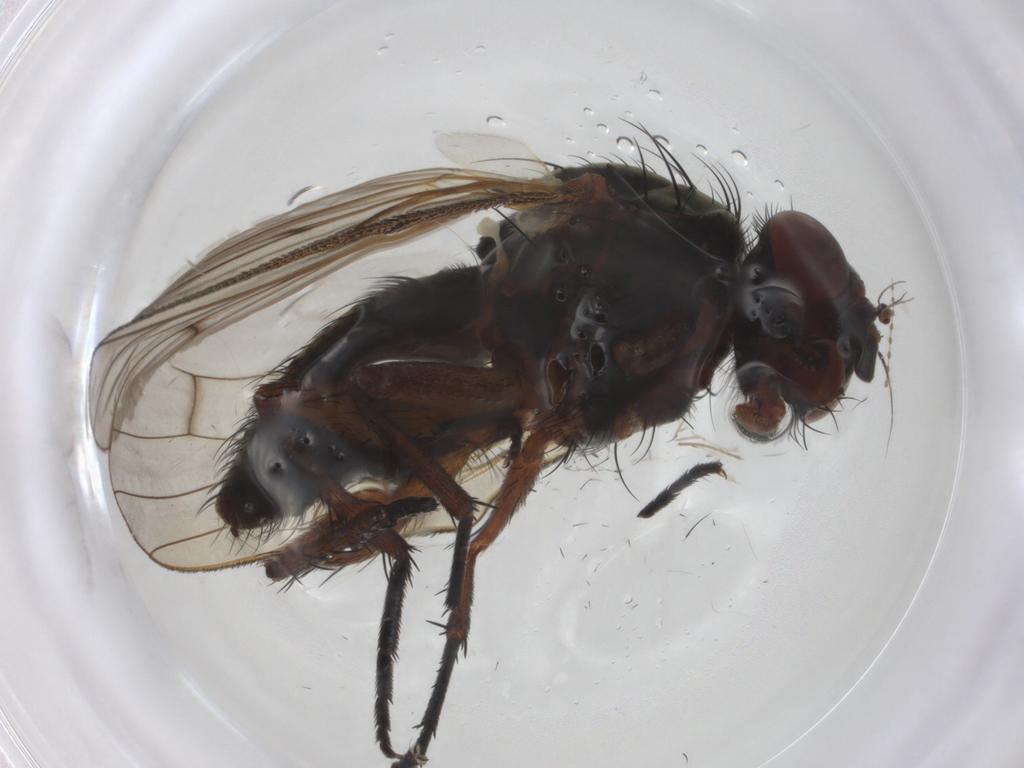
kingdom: Animalia
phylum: Arthropoda
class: Insecta
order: Diptera
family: Anthomyiidae
